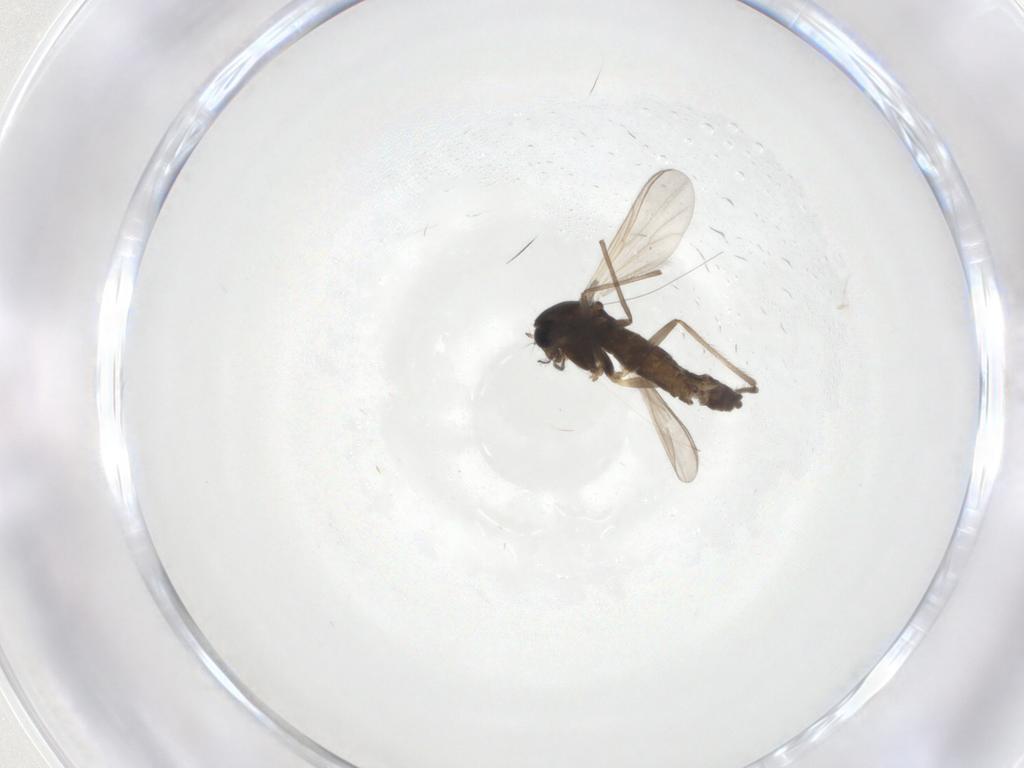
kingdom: Animalia
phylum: Arthropoda
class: Insecta
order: Diptera
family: Chironomidae
